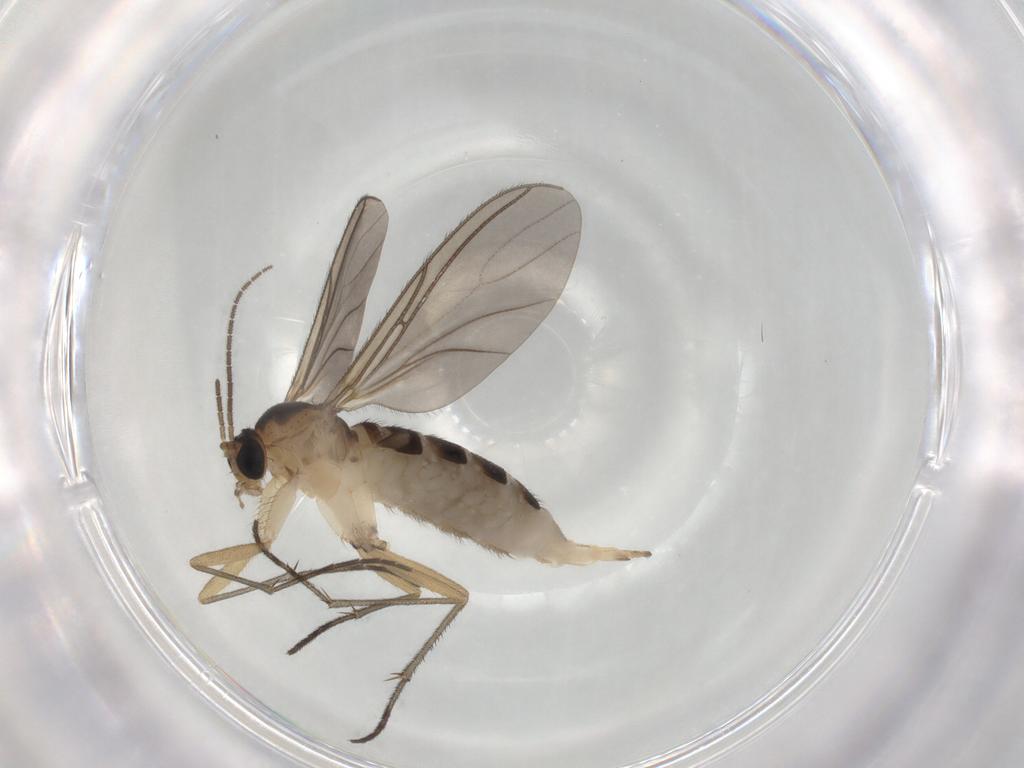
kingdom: Animalia
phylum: Arthropoda
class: Insecta
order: Diptera
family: Sciaridae
